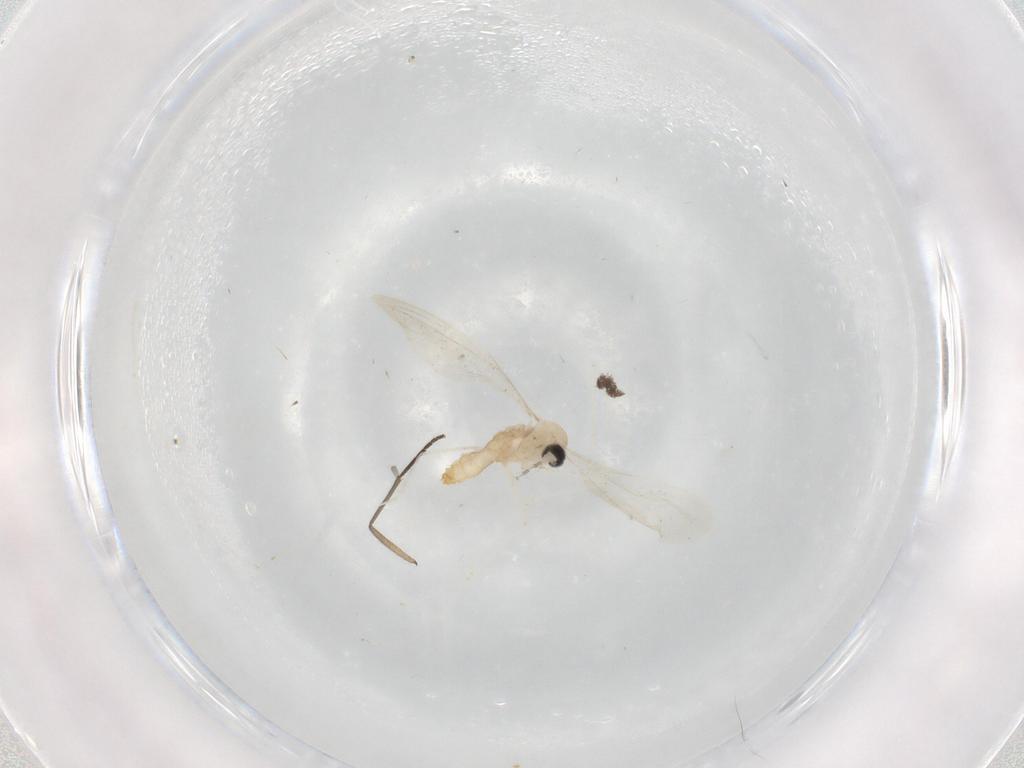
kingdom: Animalia
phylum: Arthropoda
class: Insecta
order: Diptera
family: Cecidomyiidae
